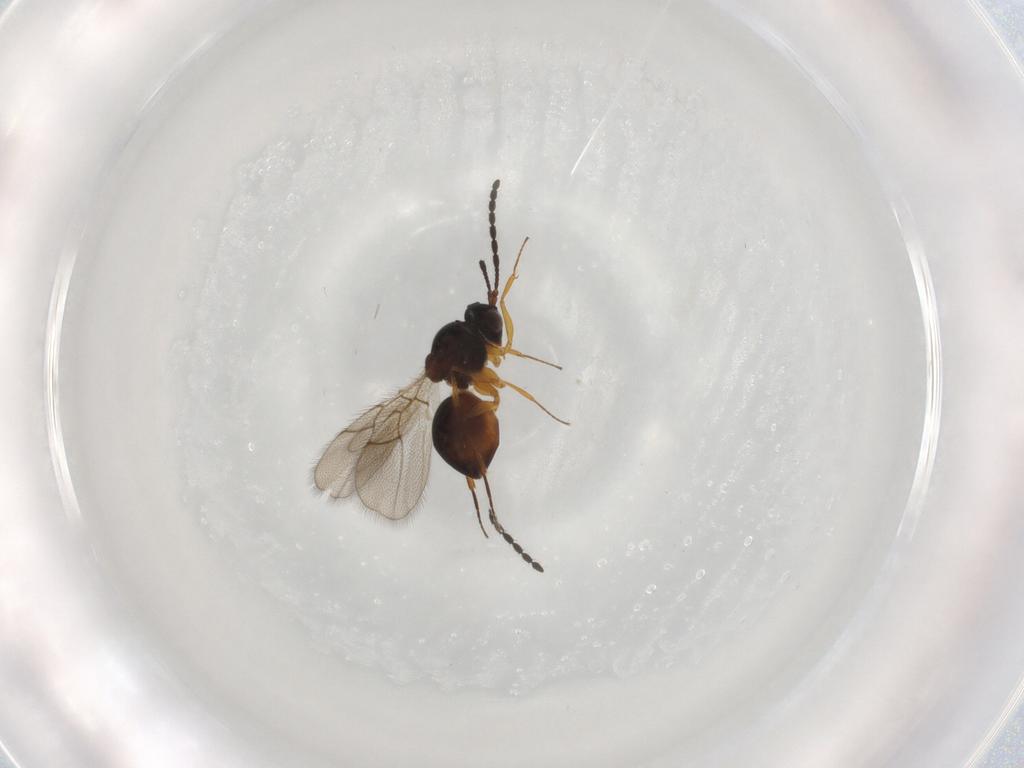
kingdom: Animalia
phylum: Arthropoda
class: Insecta
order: Hymenoptera
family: Figitidae
